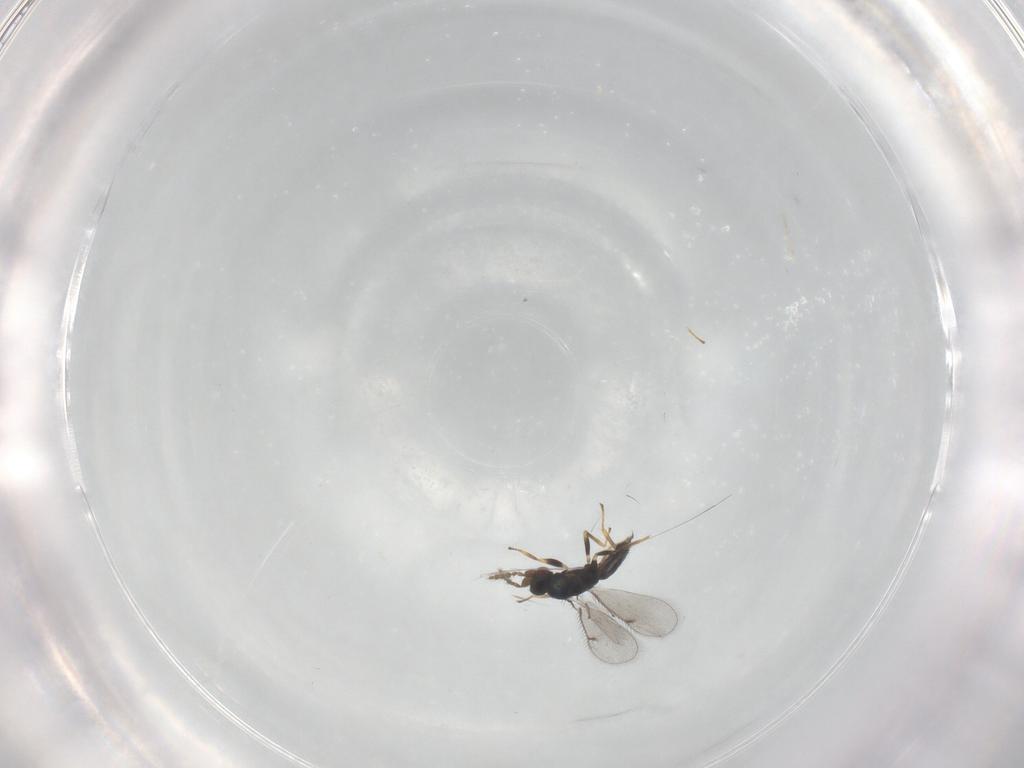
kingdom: Animalia
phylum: Arthropoda
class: Insecta
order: Hymenoptera
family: Eulophidae
